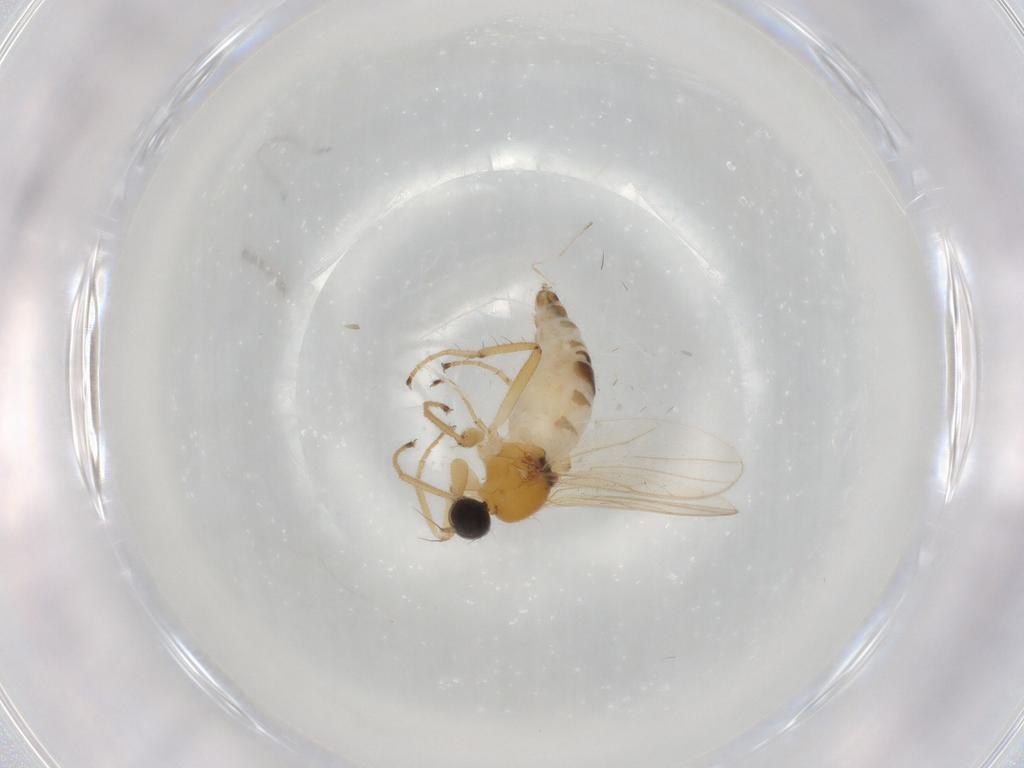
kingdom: Animalia
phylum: Arthropoda
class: Insecta
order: Diptera
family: Hybotidae
